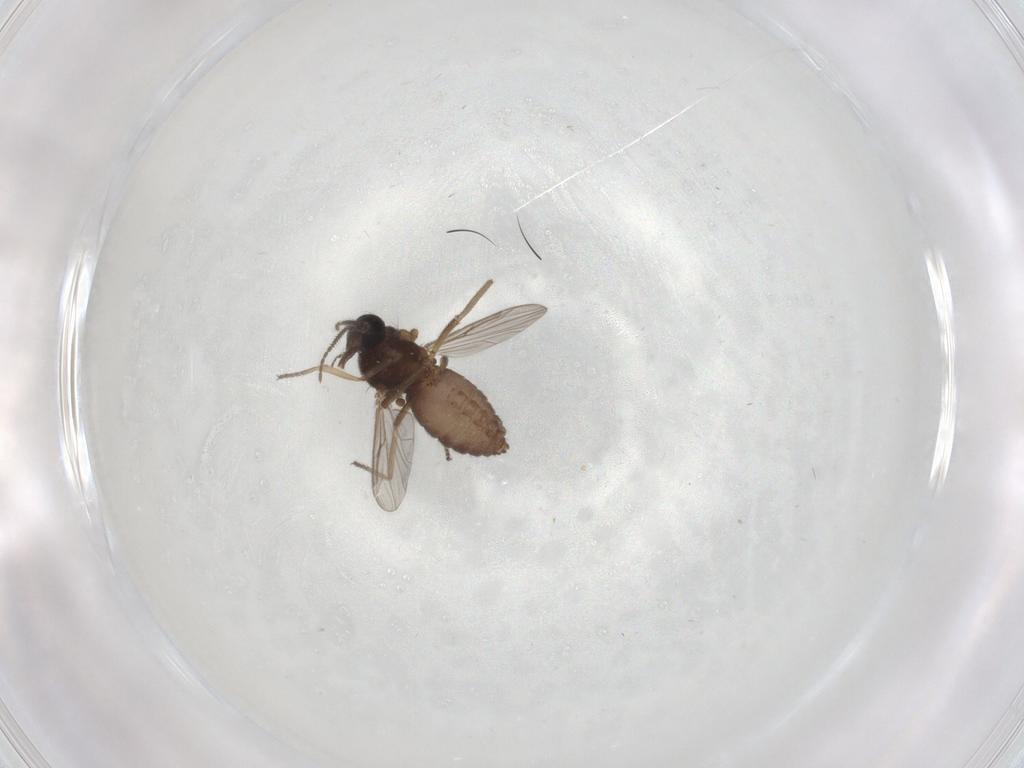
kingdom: Animalia
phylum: Arthropoda
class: Insecta
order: Diptera
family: Ceratopogonidae
